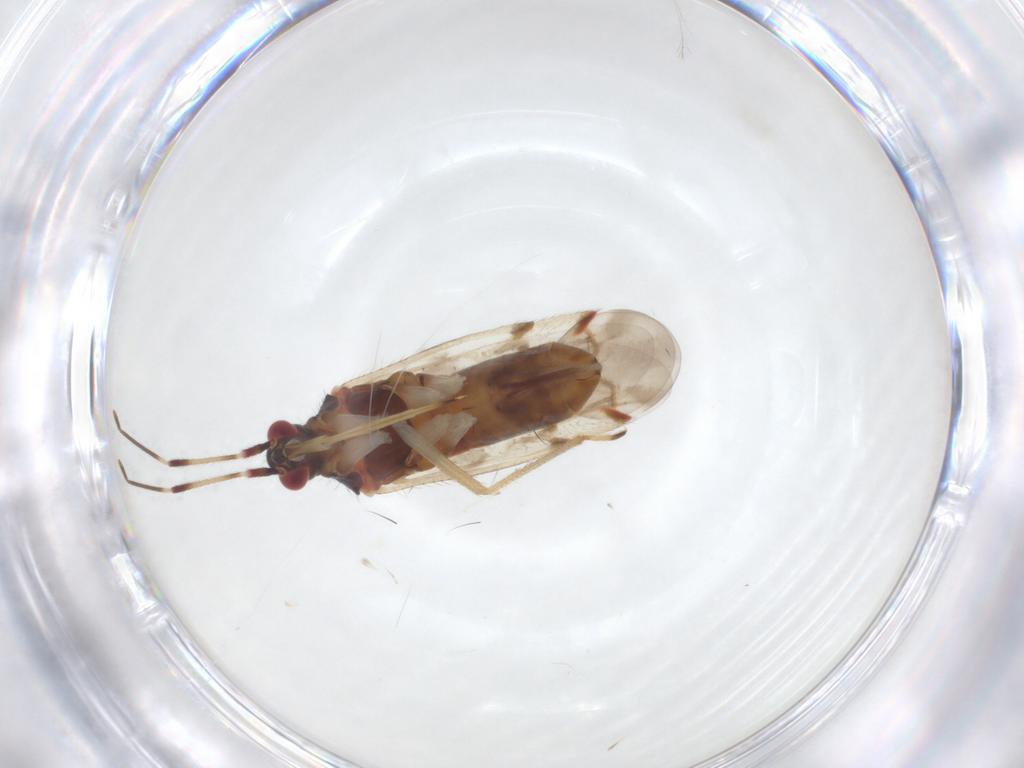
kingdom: Animalia
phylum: Arthropoda
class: Insecta
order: Hemiptera
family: Miridae
